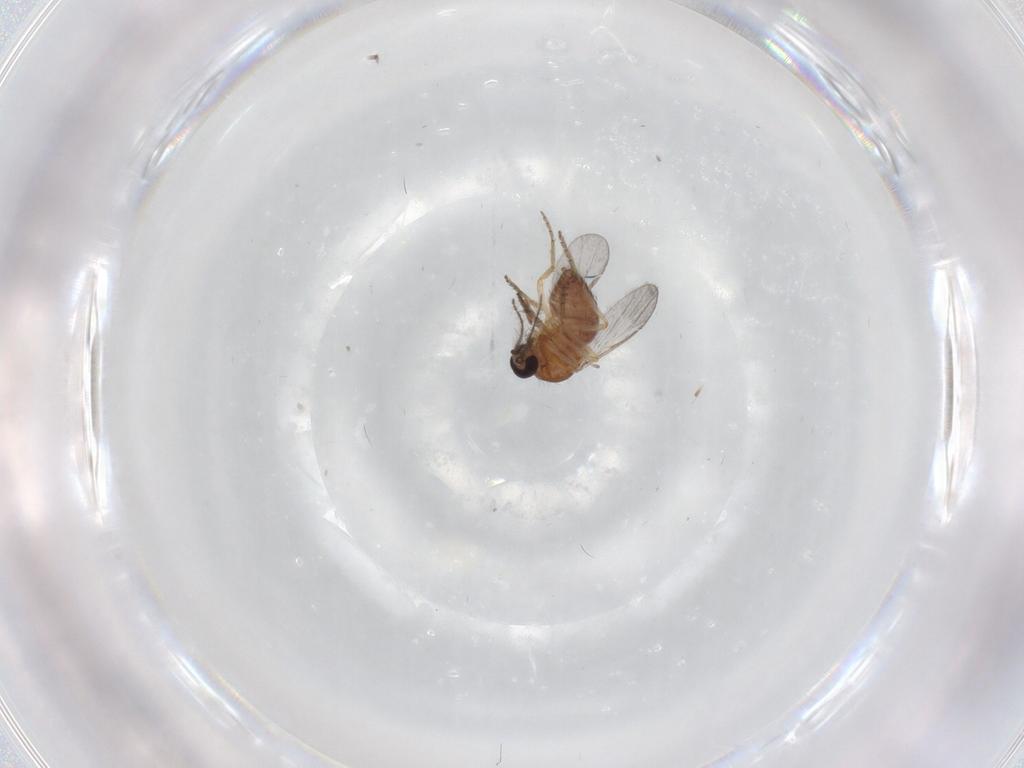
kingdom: Animalia
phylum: Arthropoda
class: Insecta
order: Diptera
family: Ceratopogonidae
